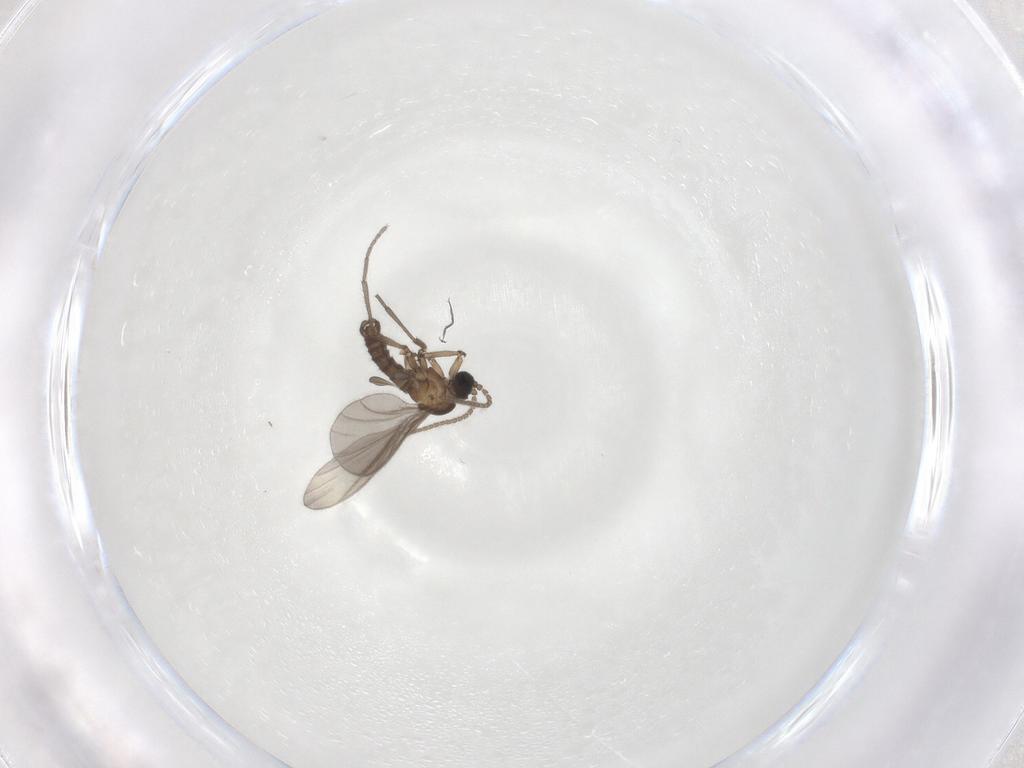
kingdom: Animalia
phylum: Arthropoda
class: Insecta
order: Diptera
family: Sciaridae
